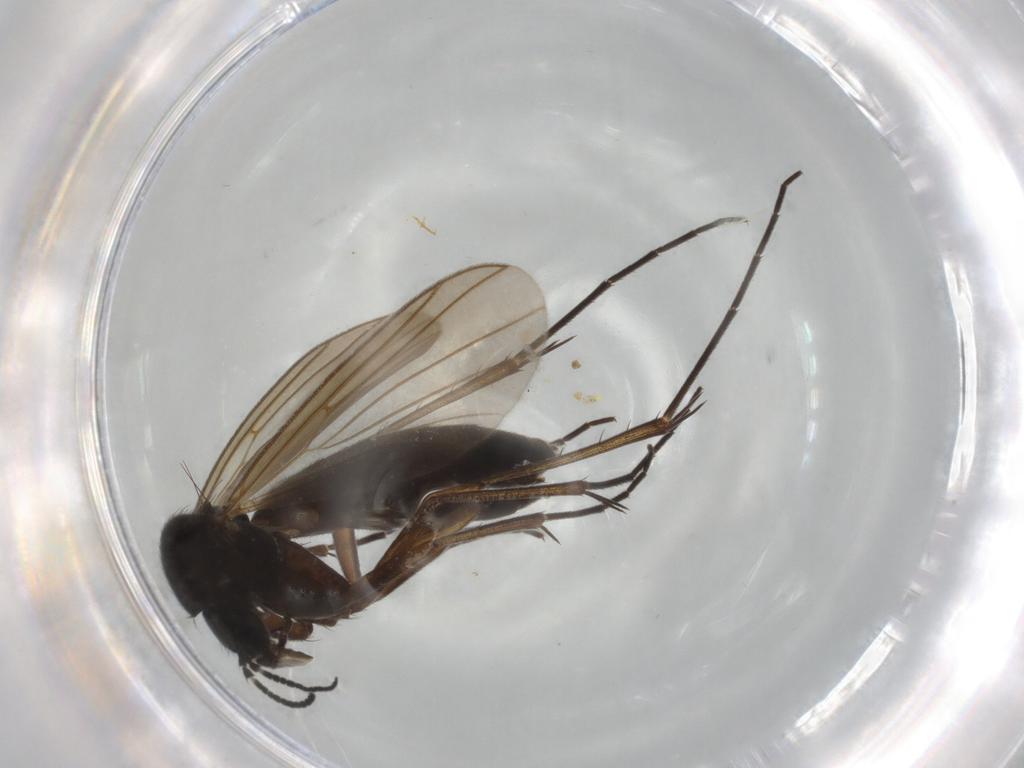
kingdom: Animalia
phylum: Arthropoda
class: Insecta
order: Diptera
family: Mycetophilidae
